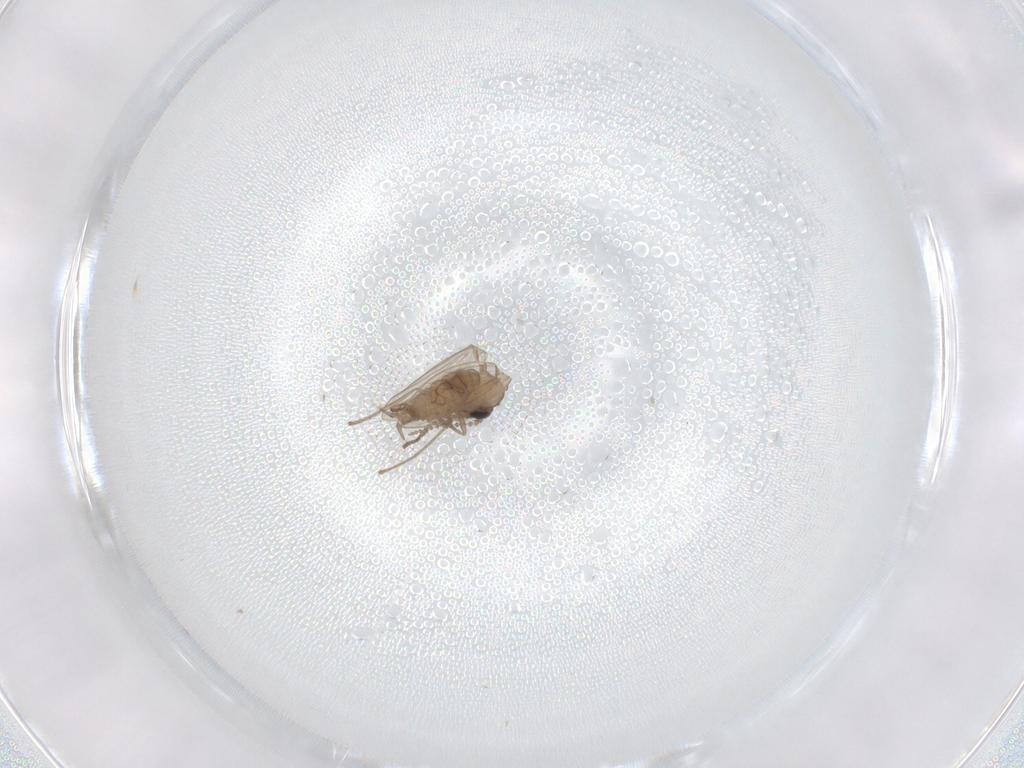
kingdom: Animalia
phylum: Arthropoda
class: Insecta
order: Diptera
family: Psychodidae
